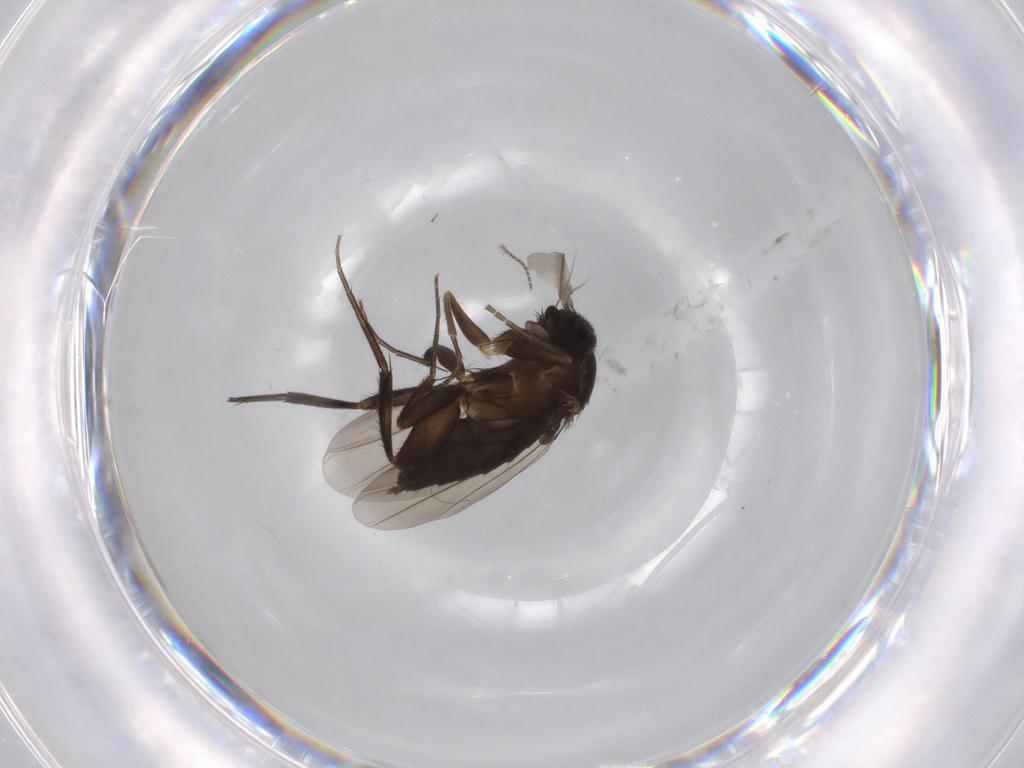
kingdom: Animalia
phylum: Arthropoda
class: Insecta
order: Diptera
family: Phoridae
